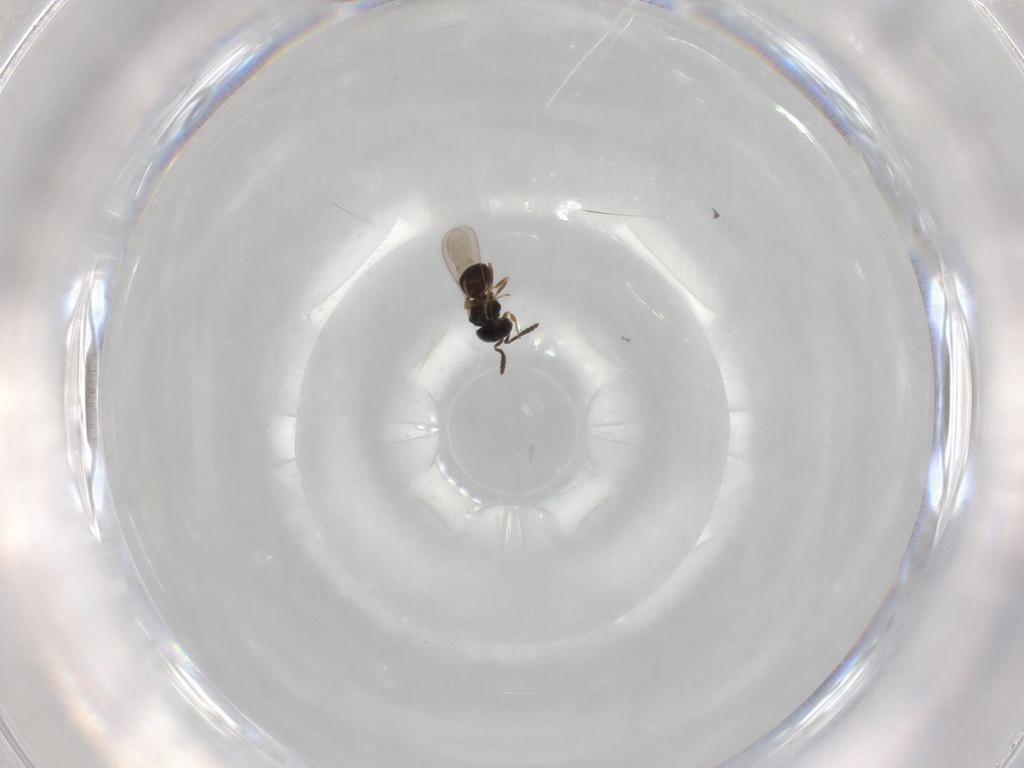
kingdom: Animalia
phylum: Arthropoda
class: Insecta
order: Hymenoptera
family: Scelionidae
